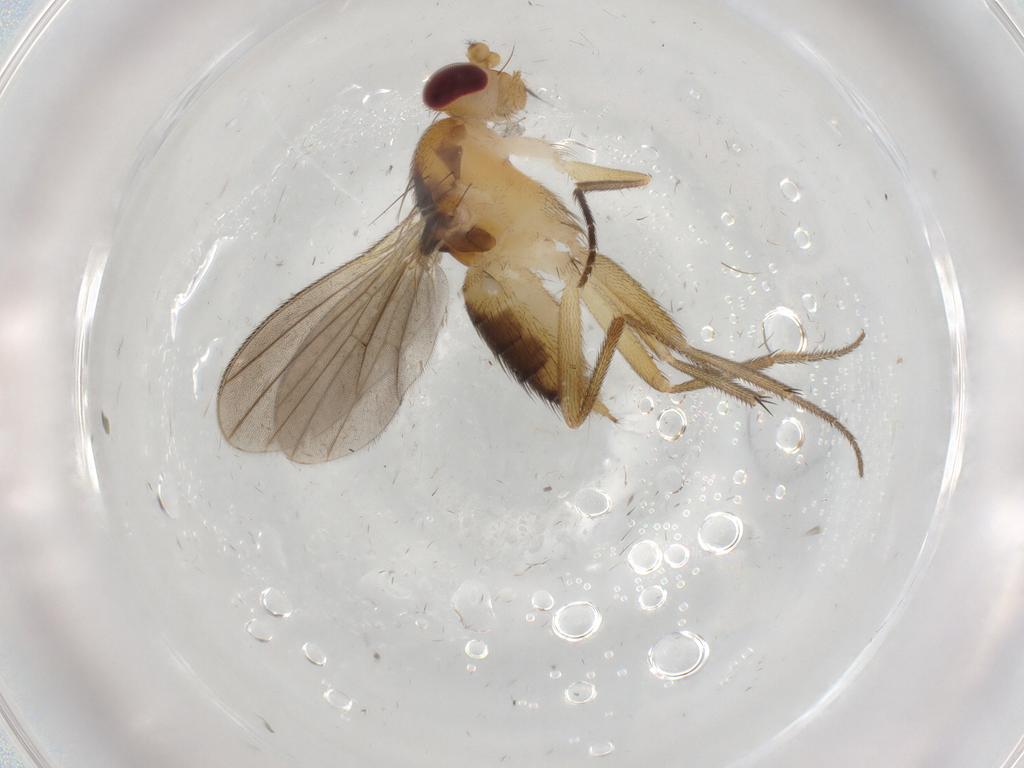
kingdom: Animalia
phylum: Arthropoda
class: Insecta
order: Diptera
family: Clusiidae
